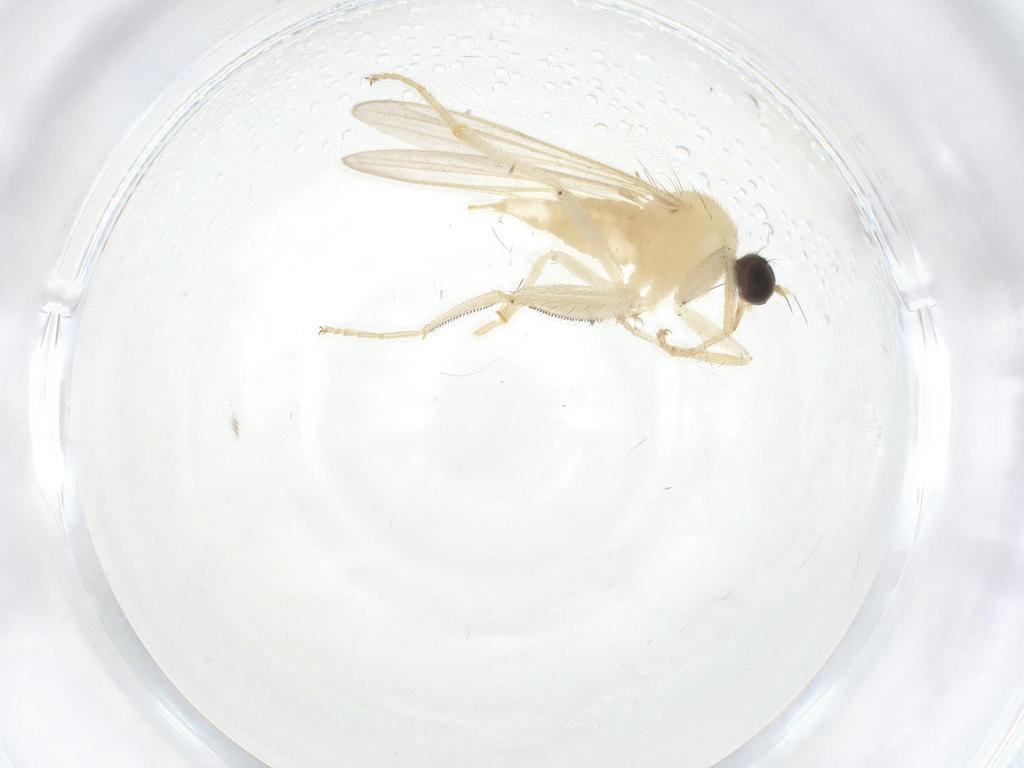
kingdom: Animalia
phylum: Arthropoda
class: Insecta
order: Diptera
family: Hybotidae
